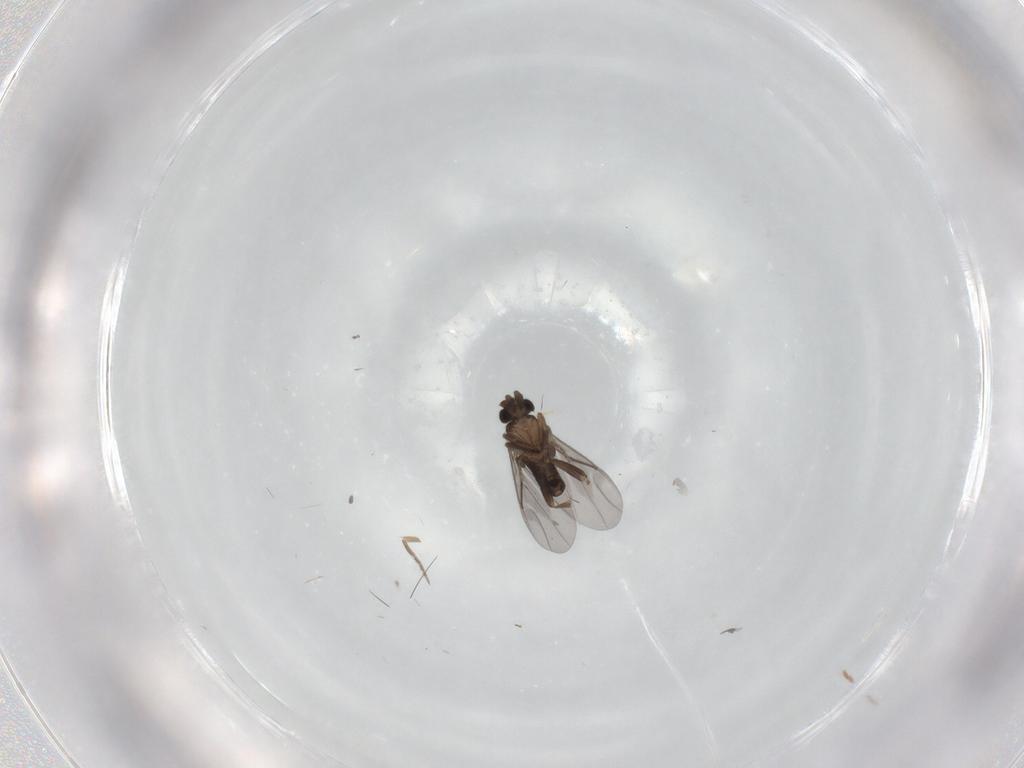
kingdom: Animalia
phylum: Arthropoda
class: Insecta
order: Diptera
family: Cecidomyiidae
